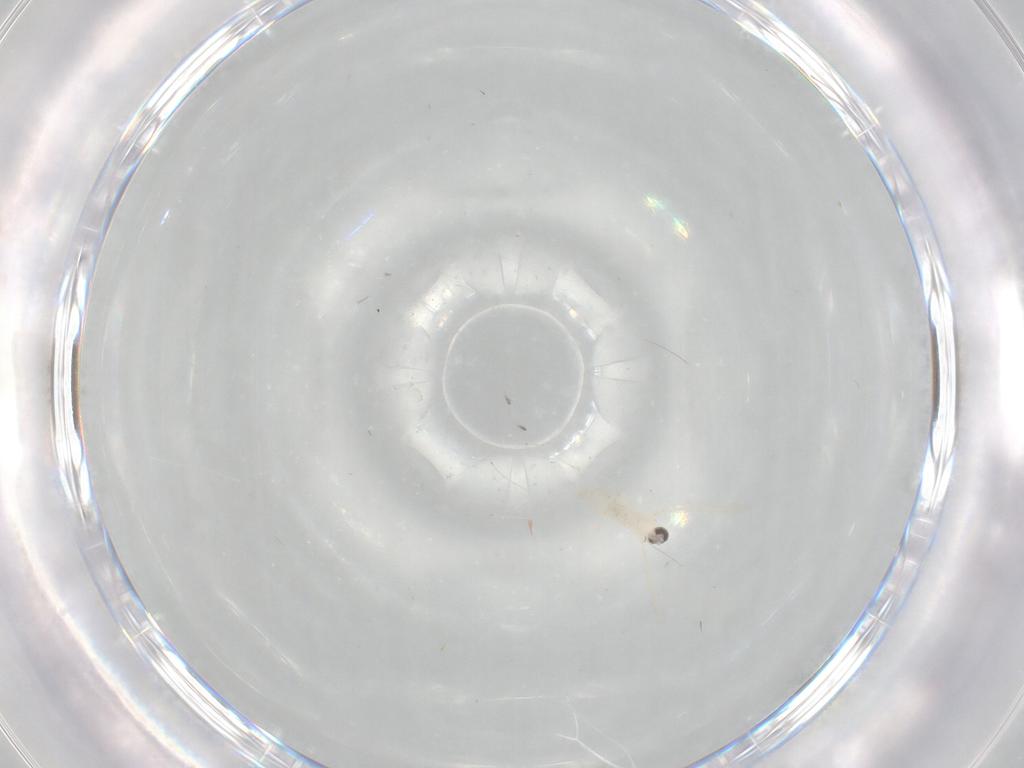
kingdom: Animalia
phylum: Arthropoda
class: Insecta
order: Diptera
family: Cecidomyiidae
